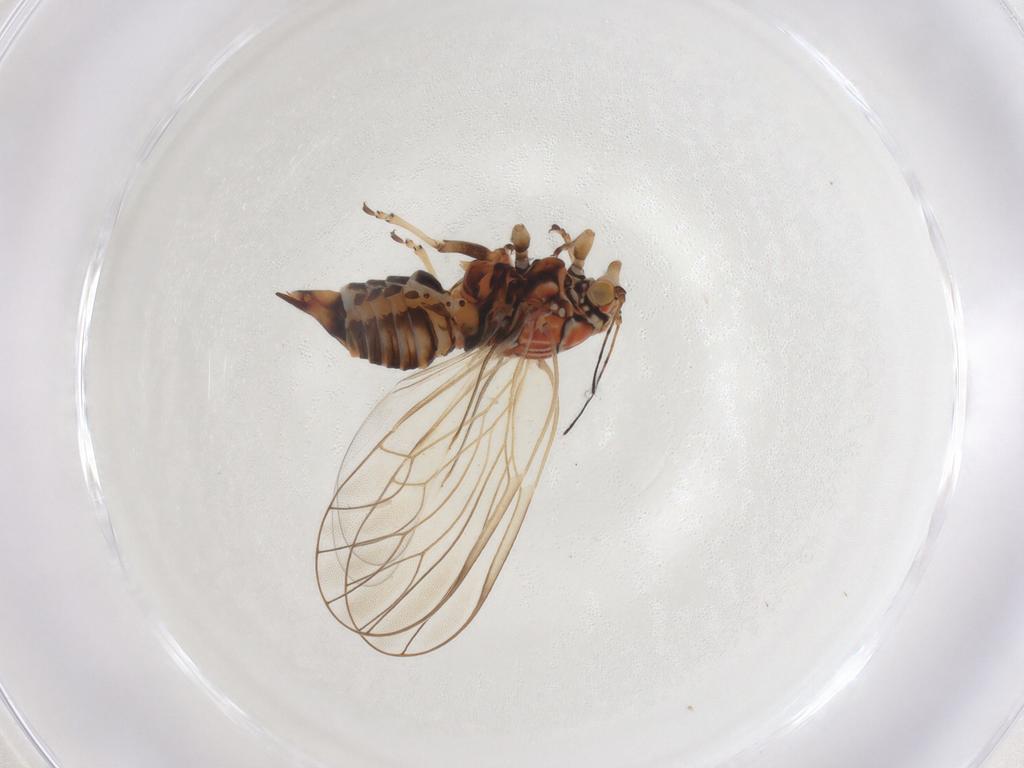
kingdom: Animalia
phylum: Arthropoda
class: Insecta
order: Hemiptera
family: Psyllidae
